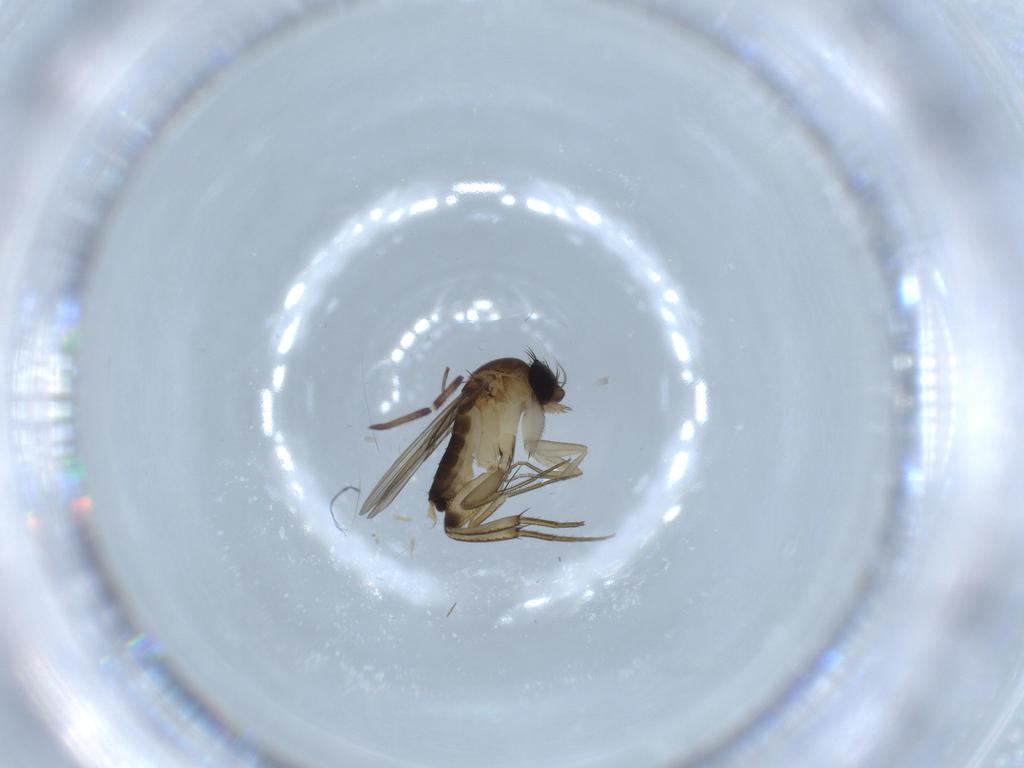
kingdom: Animalia
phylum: Arthropoda
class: Insecta
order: Diptera
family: Phoridae
